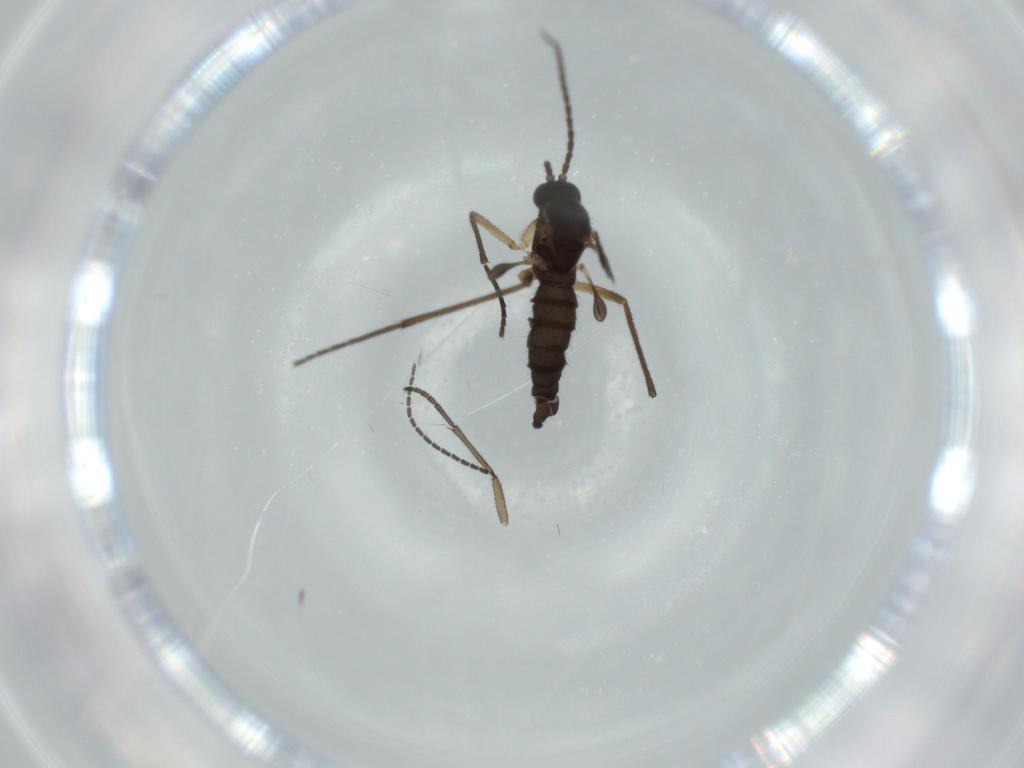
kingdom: Animalia
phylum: Arthropoda
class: Insecta
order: Diptera
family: Sciaridae
